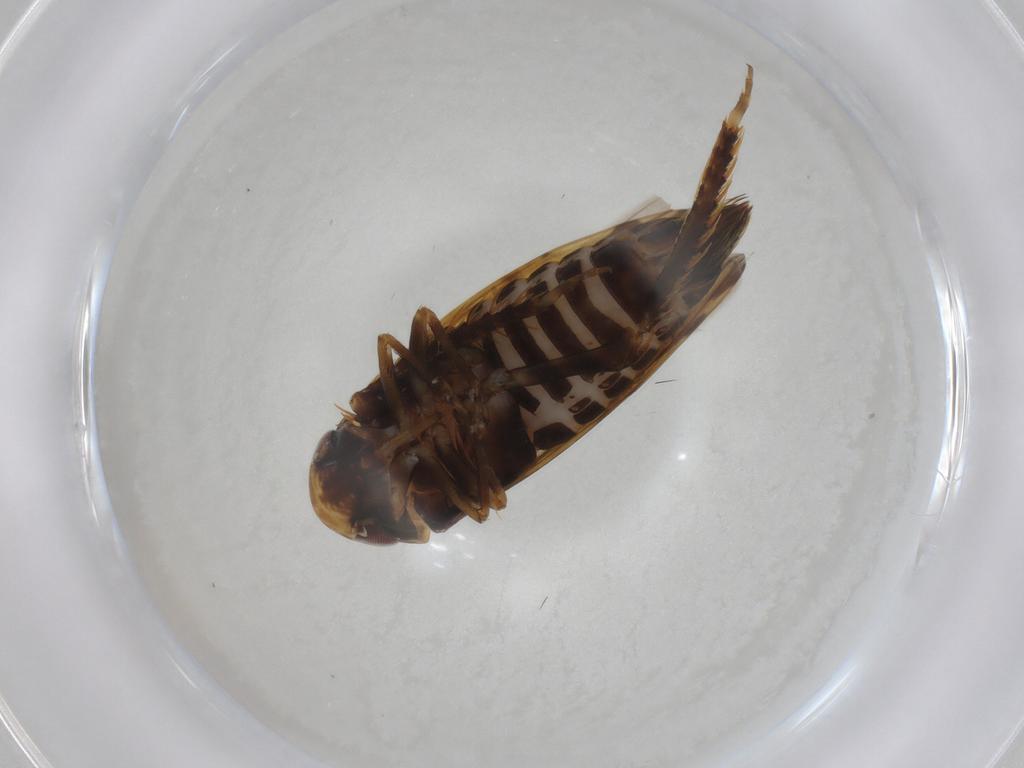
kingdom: Animalia
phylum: Arthropoda
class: Insecta
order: Hemiptera
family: Cicadellidae
